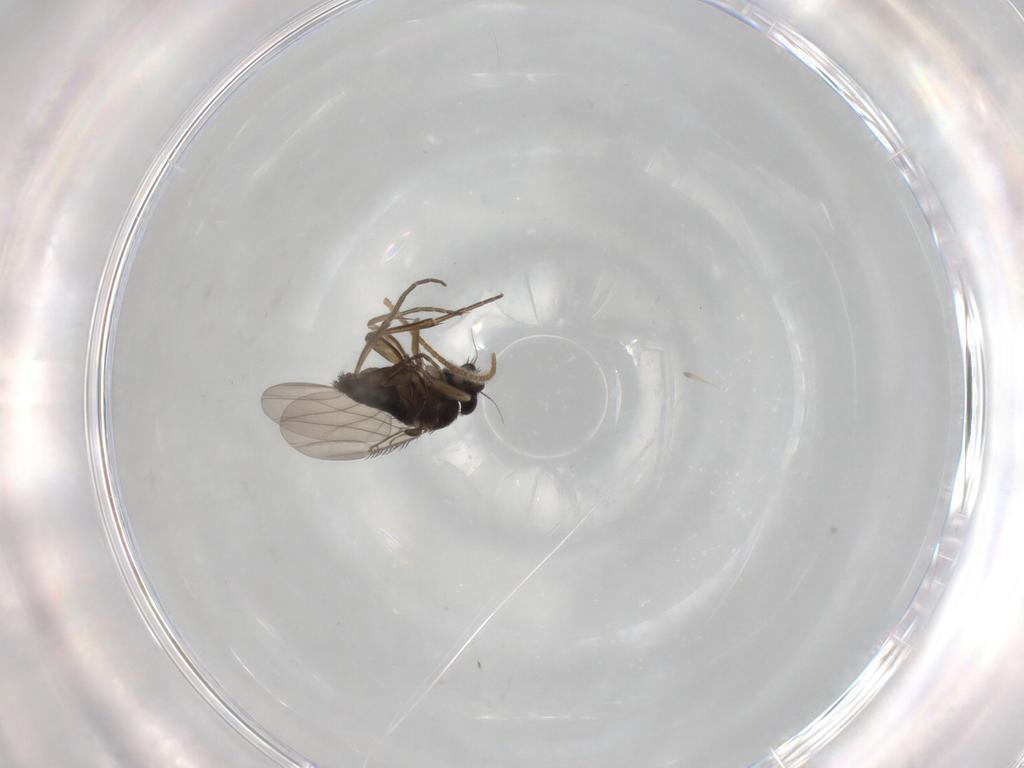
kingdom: Animalia
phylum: Arthropoda
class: Insecta
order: Diptera
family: Phoridae
